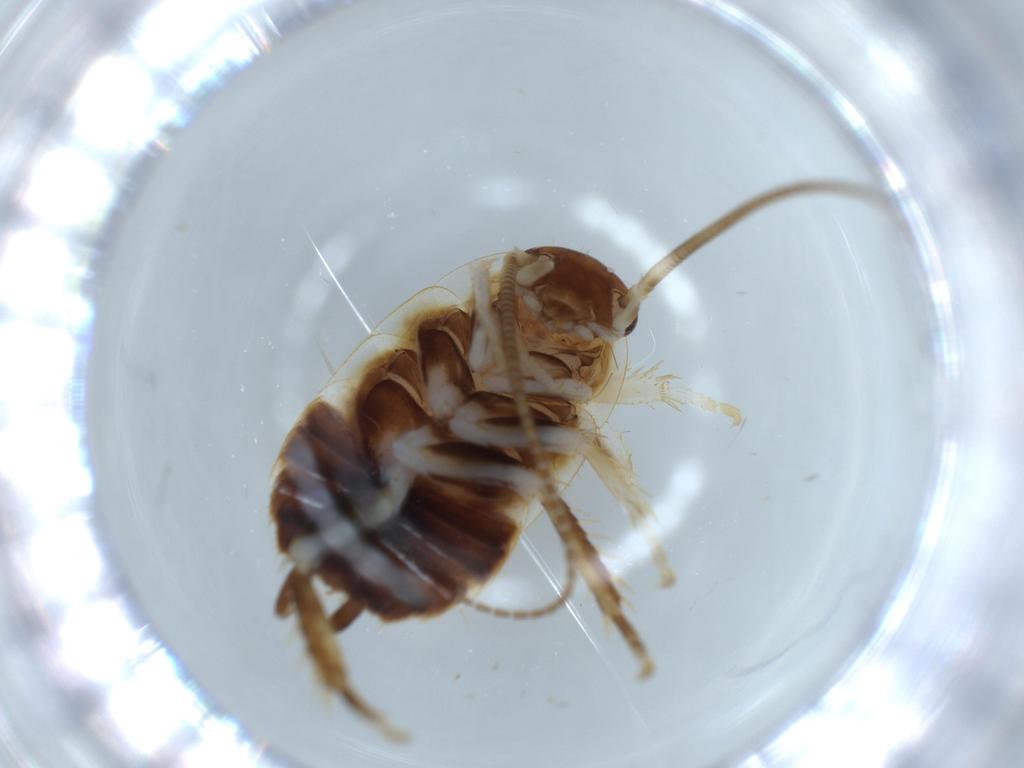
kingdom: Animalia
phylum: Arthropoda
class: Insecta
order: Blattodea
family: Ectobiidae
